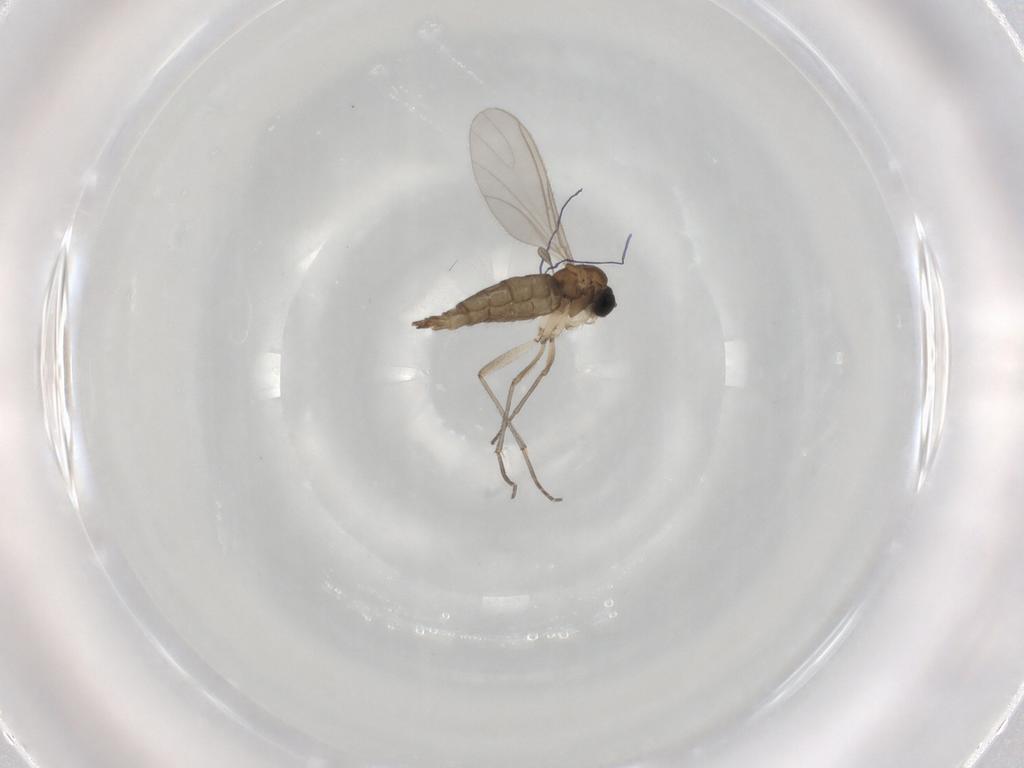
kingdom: Animalia
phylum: Arthropoda
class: Insecta
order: Diptera
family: Sciaridae
